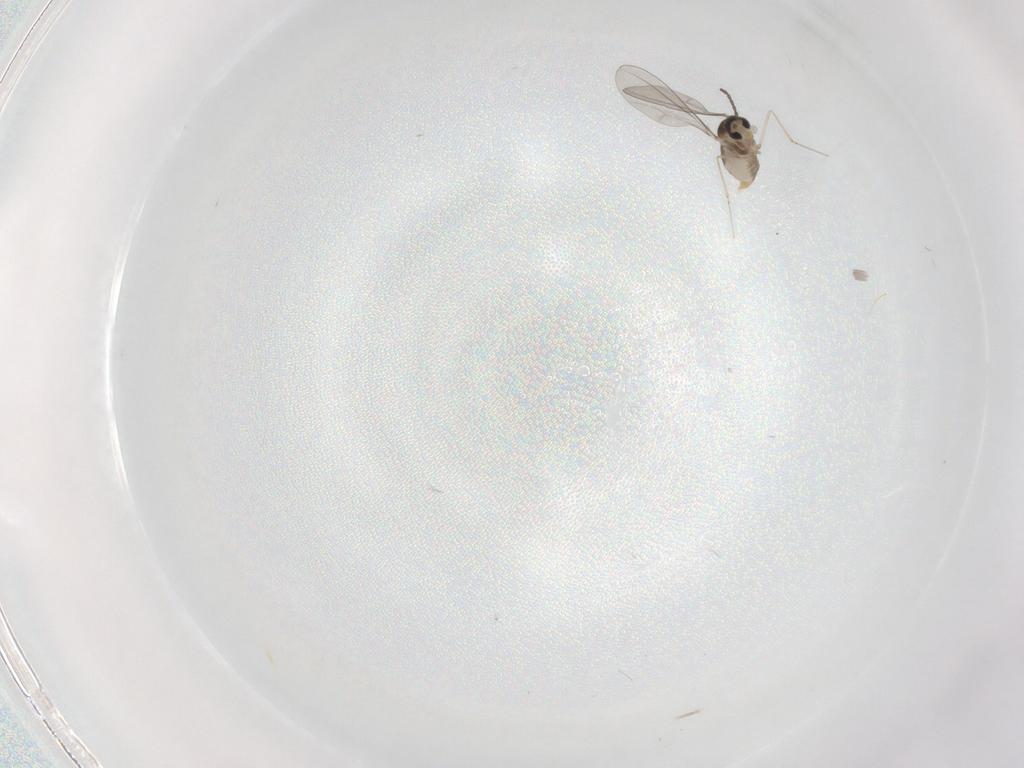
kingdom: Animalia
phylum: Arthropoda
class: Insecta
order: Diptera
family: Cecidomyiidae
